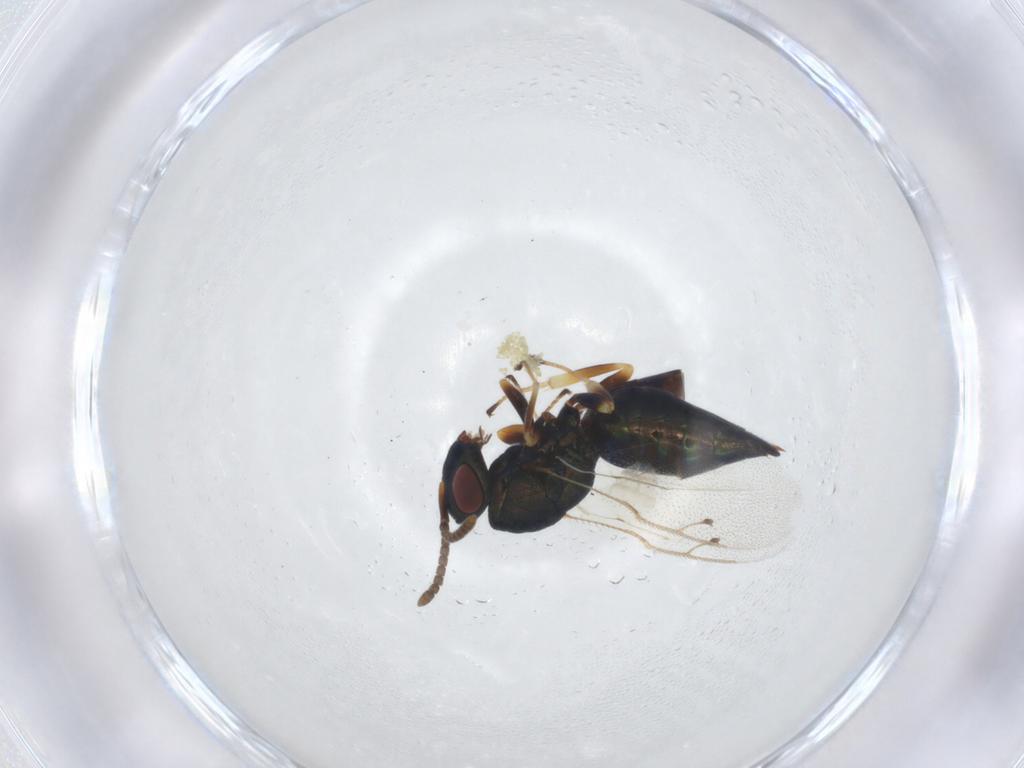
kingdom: Animalia
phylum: Arthropoda
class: Insecta
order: Hymenoptera
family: Pteromalidae
